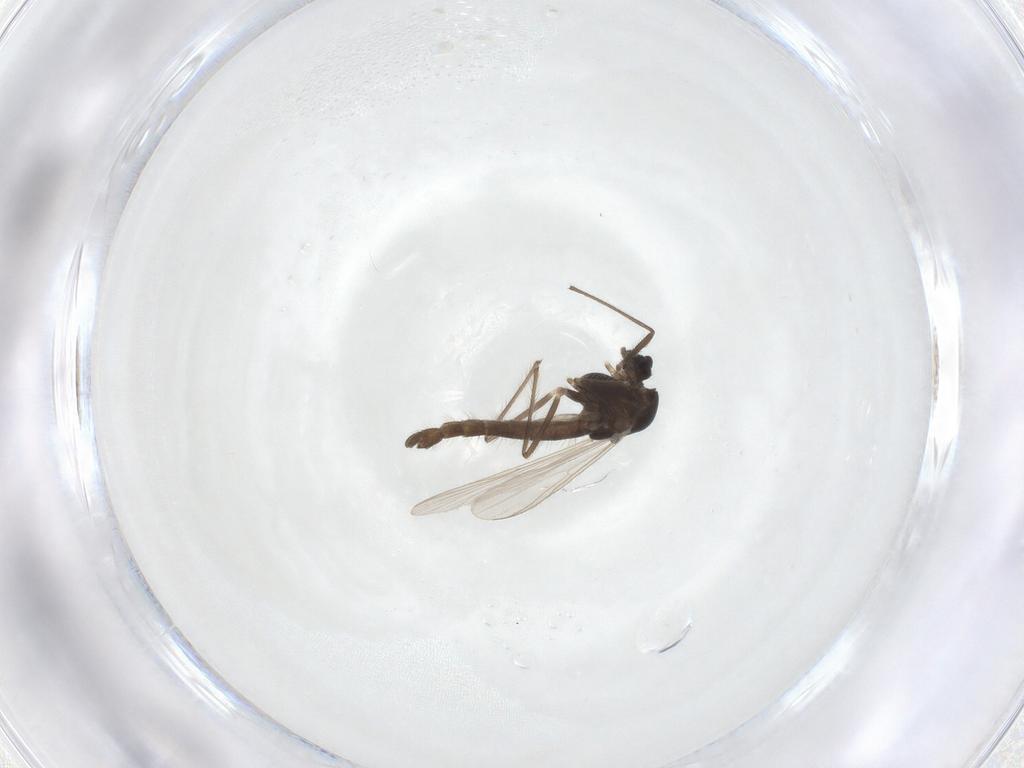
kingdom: Animalia
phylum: Arthropoda
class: Insecta
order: Diptera
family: Chironomidae
